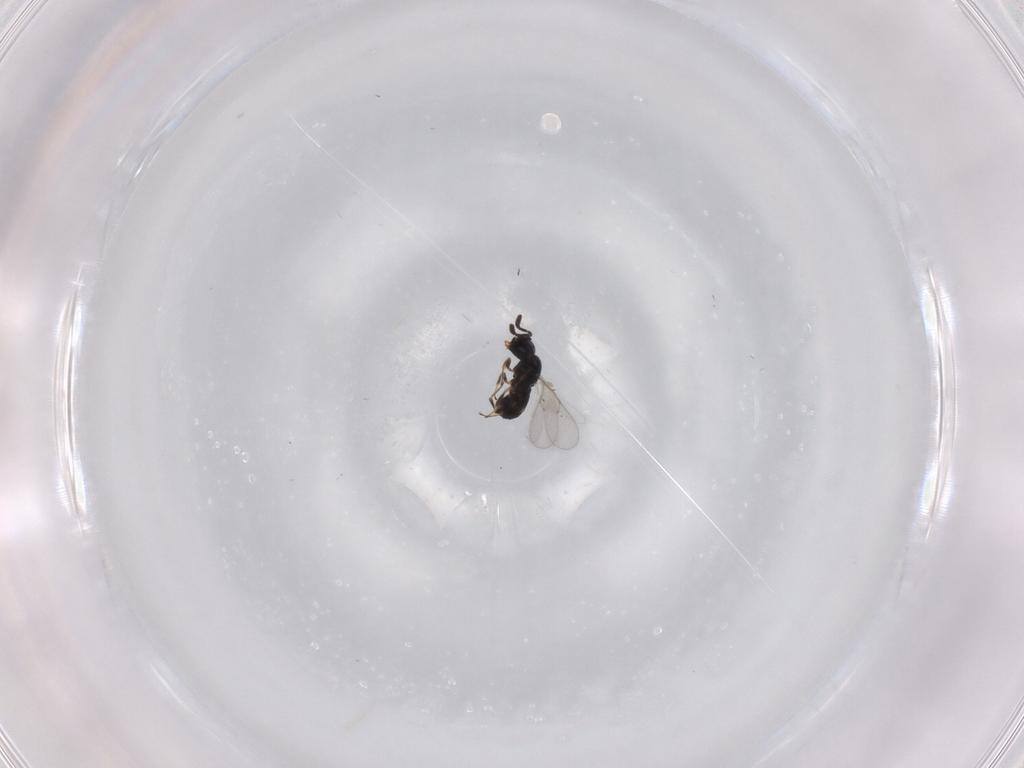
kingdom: Animalia
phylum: Arthropoda
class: Insecta
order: Hymenoptera
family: Scelionidae
